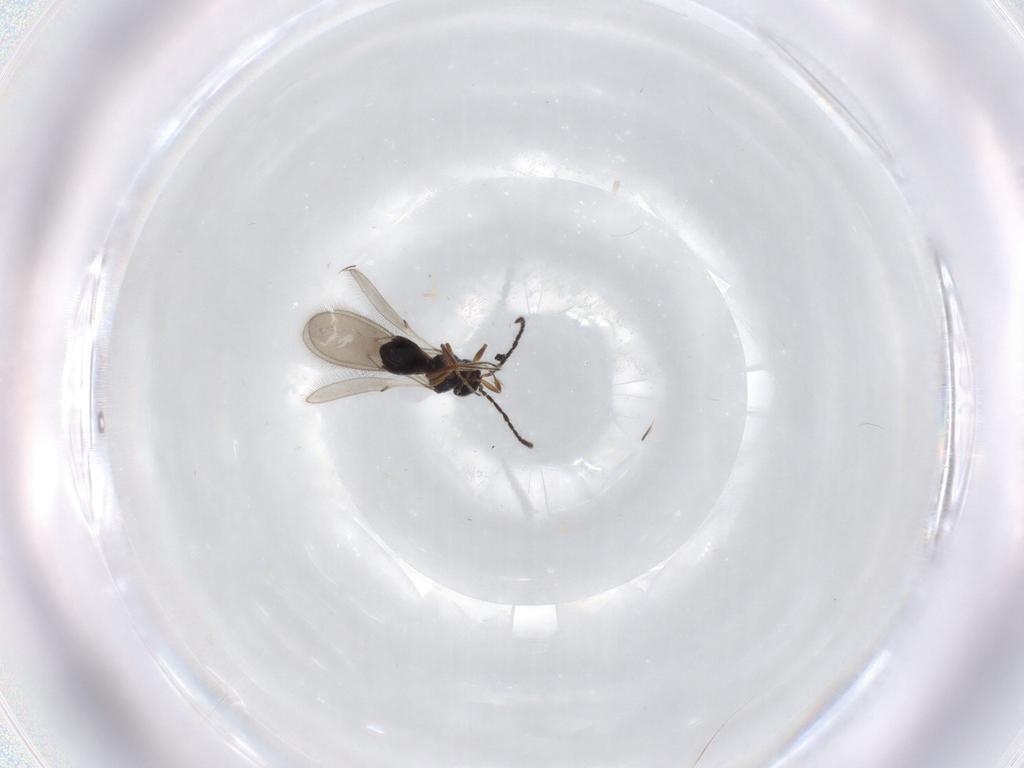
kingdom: Animalia
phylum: Arthropoda
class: Insecta
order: Hymenoptera
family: Scelionidae
